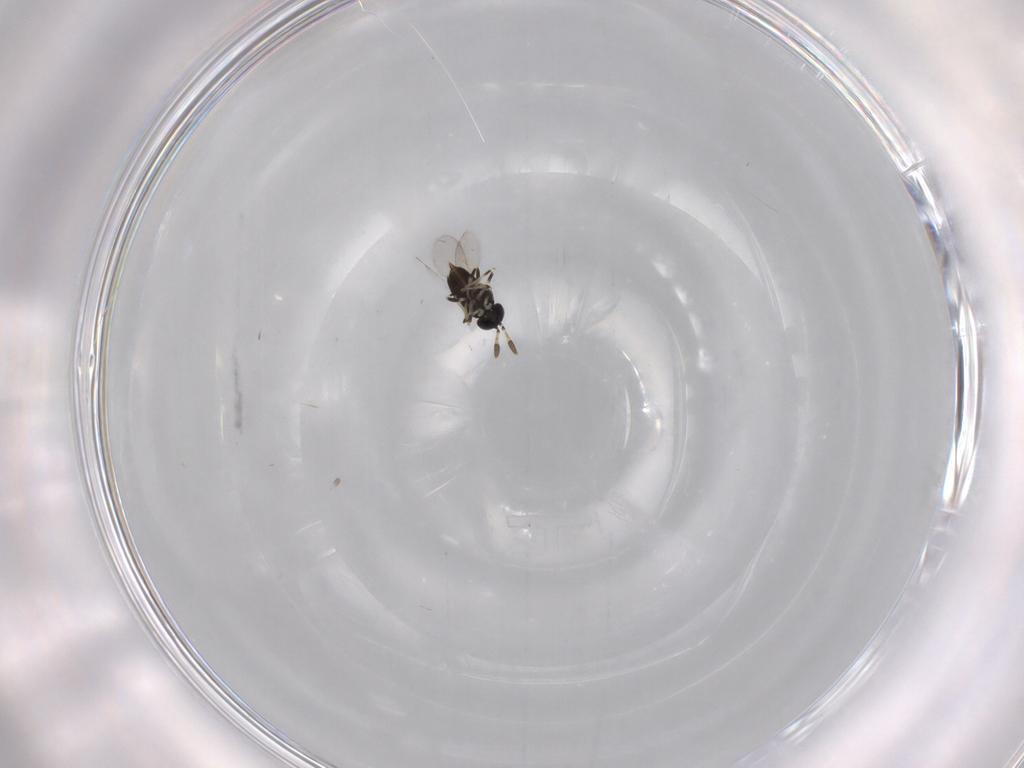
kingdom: Animalia
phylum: Arthropoda
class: Insecta
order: Hymenoptera
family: Encyrtidae
